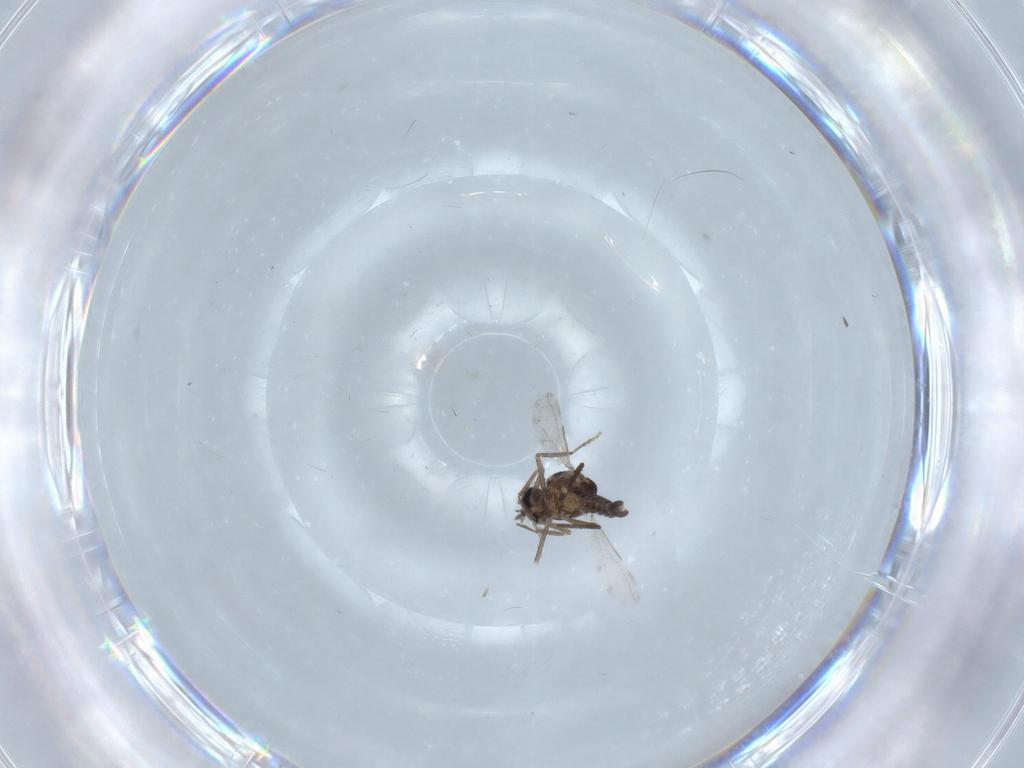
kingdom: Animalia
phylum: Arthropoda
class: Insecta
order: Diptera
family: Ceratopogonidae
